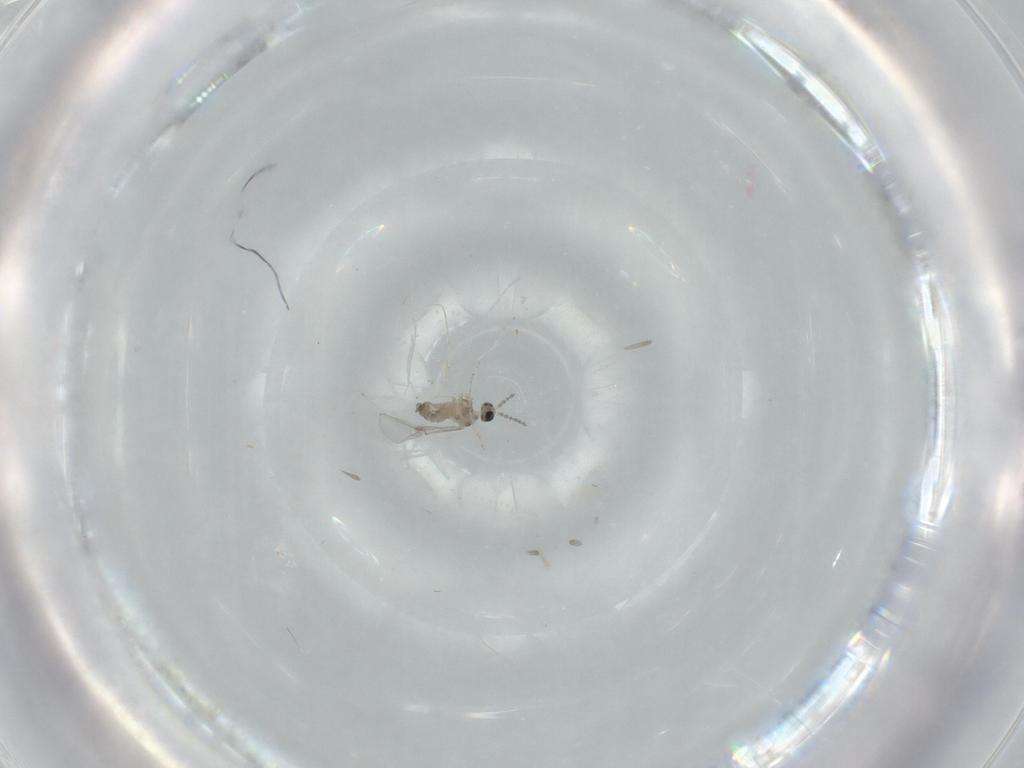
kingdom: Animalia
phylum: Arthropoda
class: Insecta
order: Diptera
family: Cecidomyiidae
